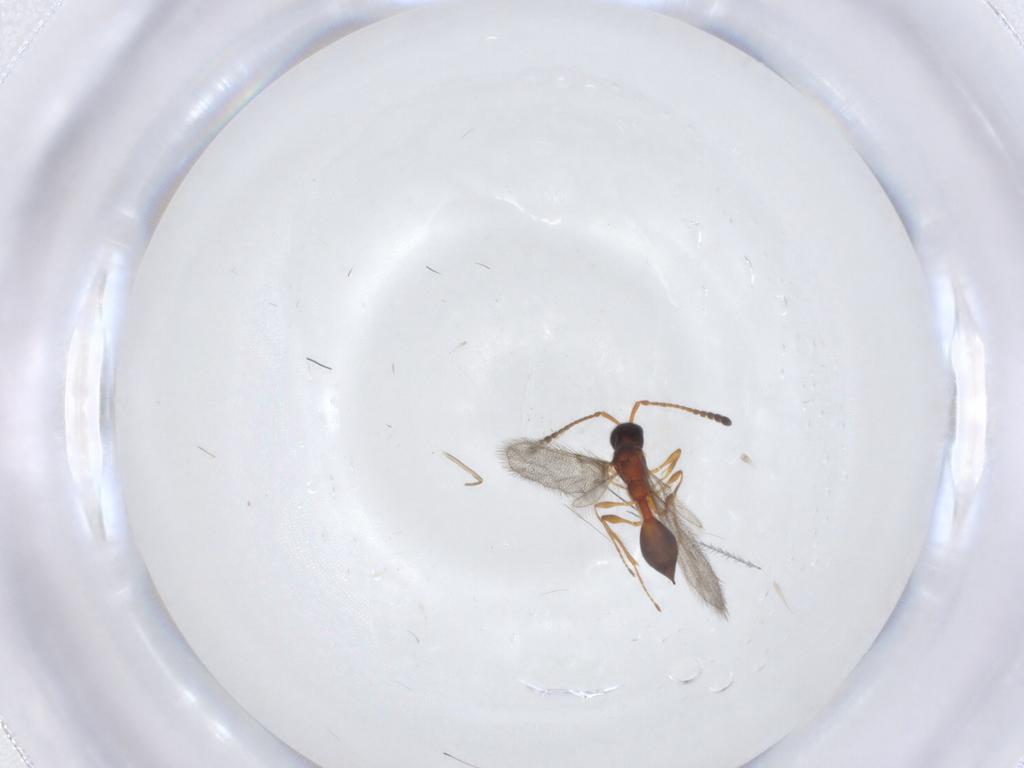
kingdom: Animalia
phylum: Arthropoda
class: Insecta
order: Hymenoptera
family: Diapriidae
